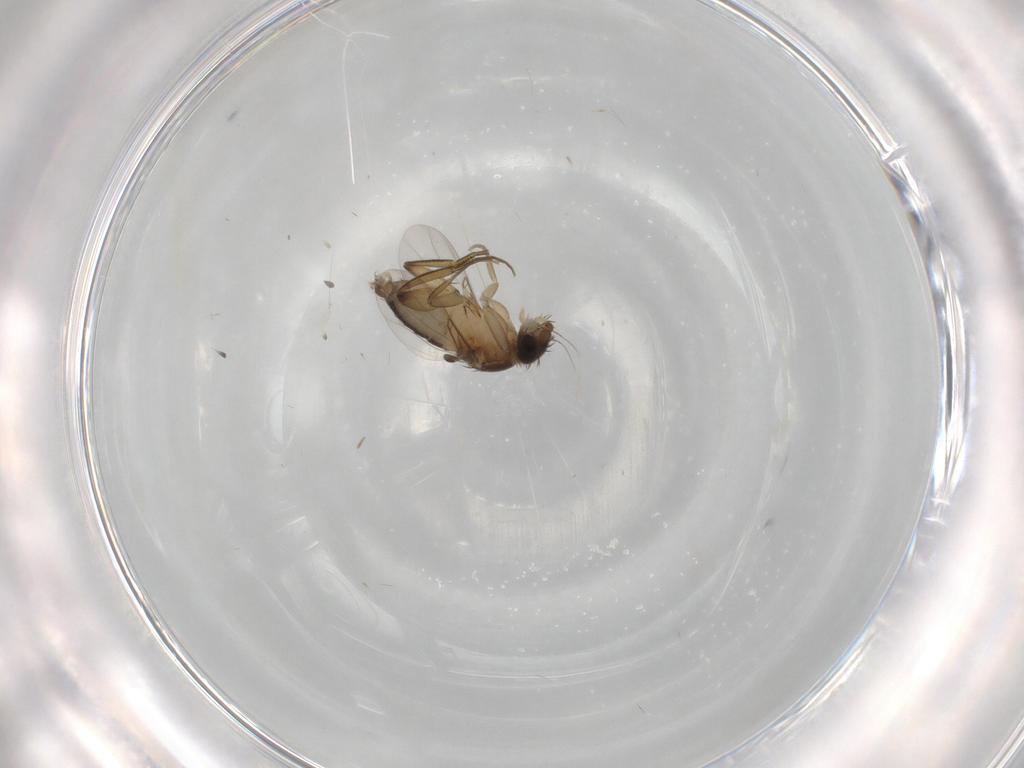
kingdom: Animalia
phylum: Arthropoda
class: Insecta
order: Diptera
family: Phoridae
